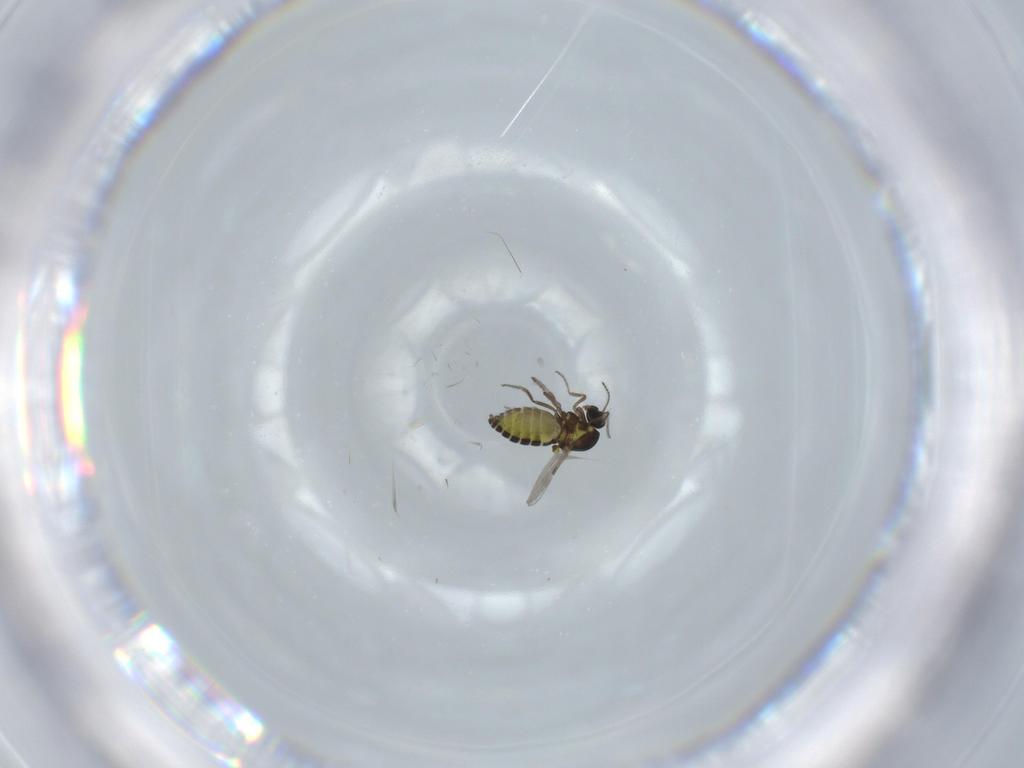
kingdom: Animalia
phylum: Arthropoda
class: Insecta
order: Diptera
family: Ceratopogonidae
